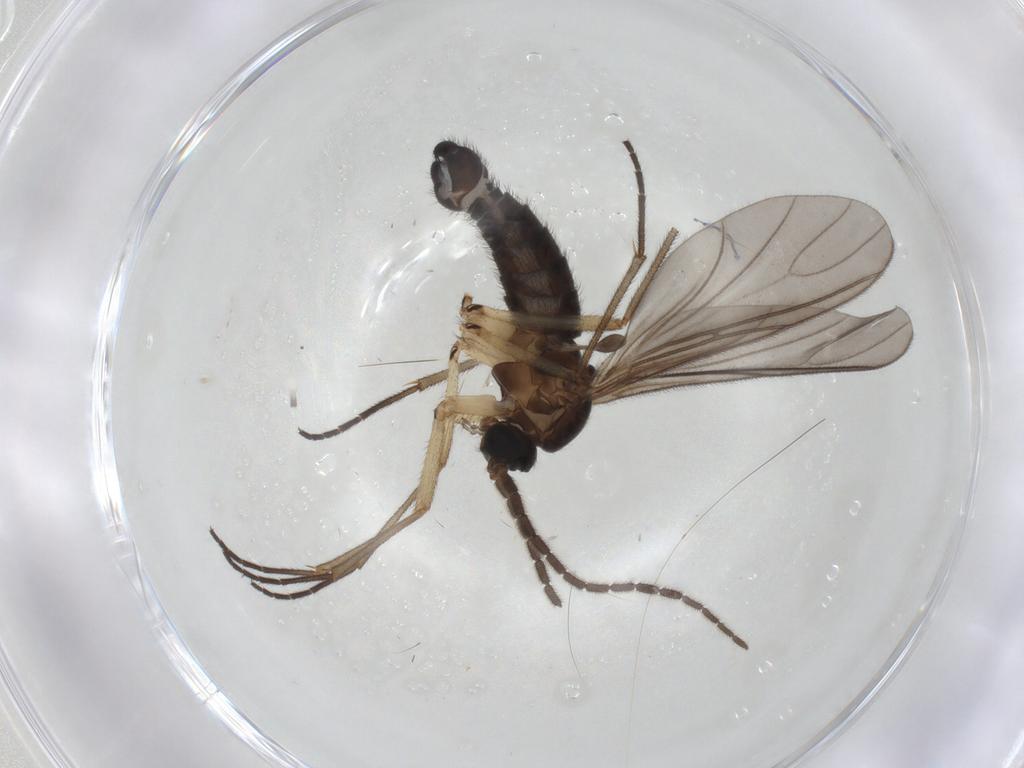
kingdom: Animalia
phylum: Arthropoda
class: Insecta
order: Diptera
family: Sciaridae
